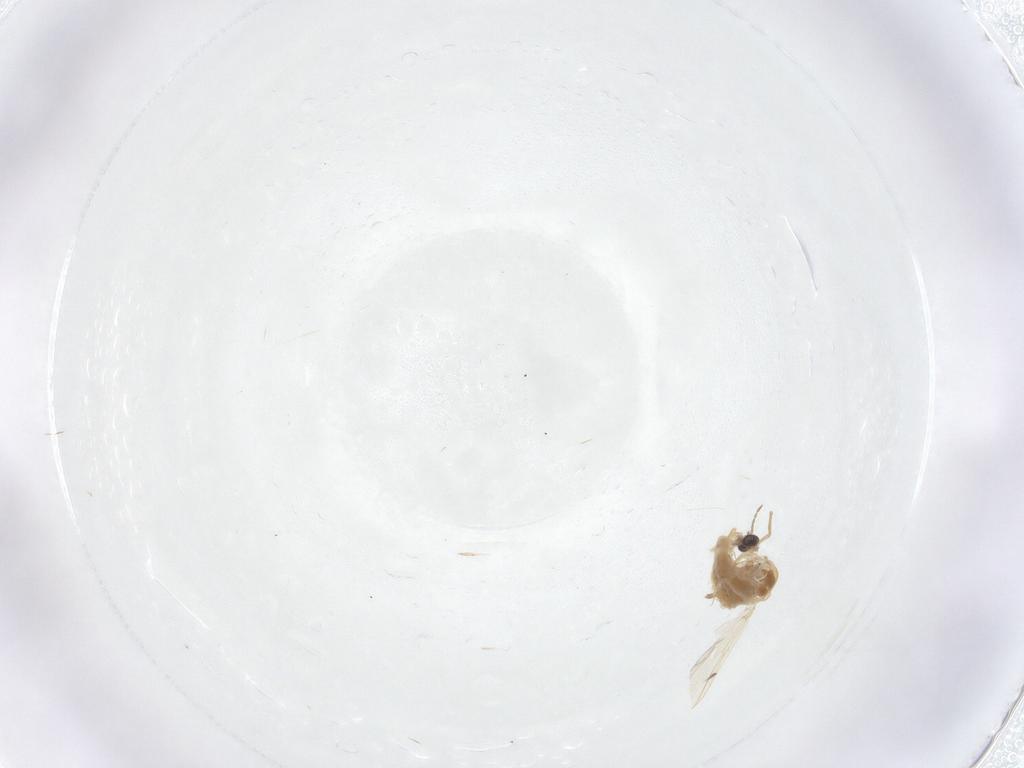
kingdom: Animalia
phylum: Arthropoda
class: Insecta
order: Diptera
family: Chironomidae
